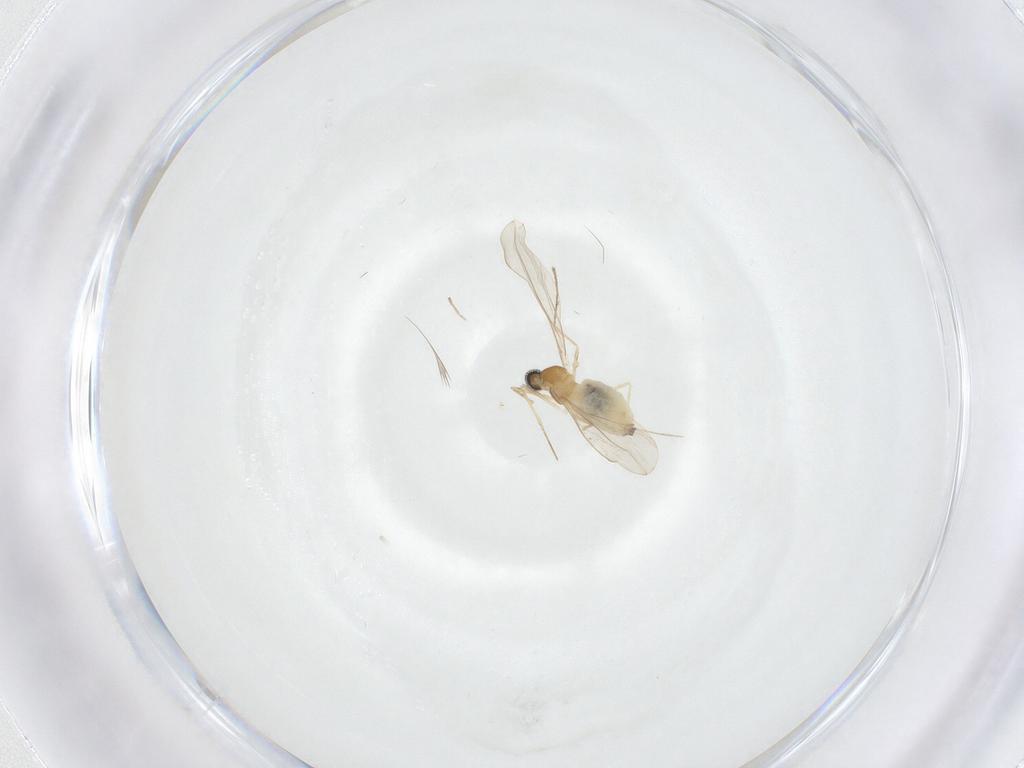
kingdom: Animalia
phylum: Arthropoda
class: Insecta
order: Diptera
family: Cecidomyiidae
